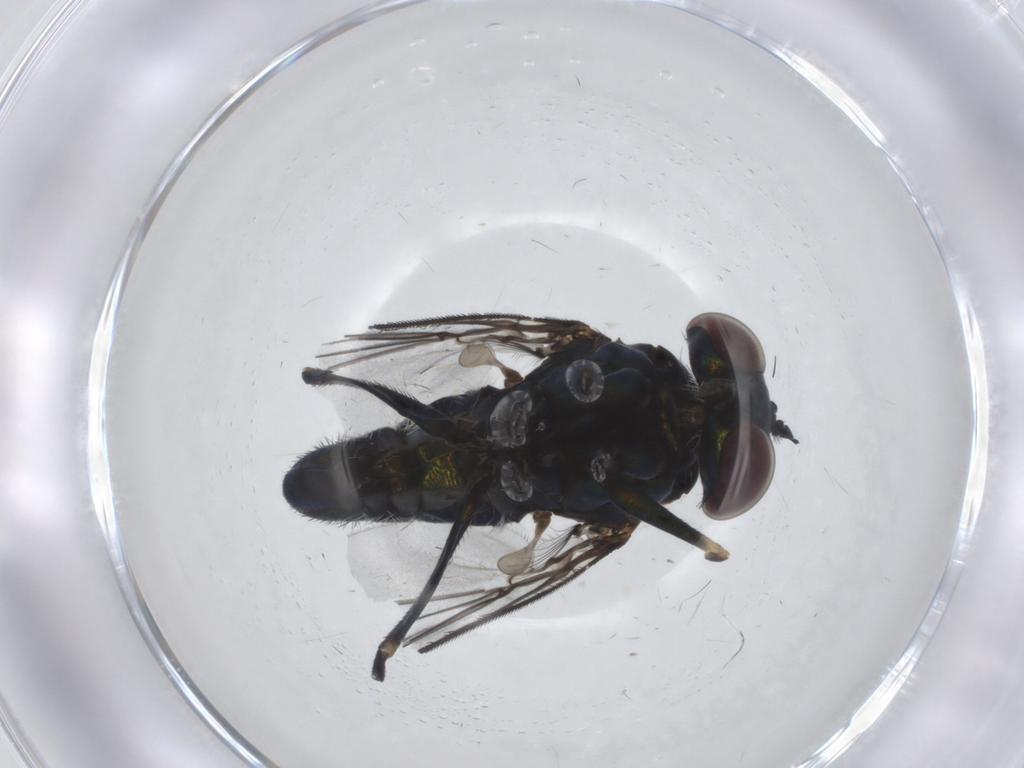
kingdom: Animalia
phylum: Arthropoda
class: Insecta
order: Diptera
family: Dolichopodidae
